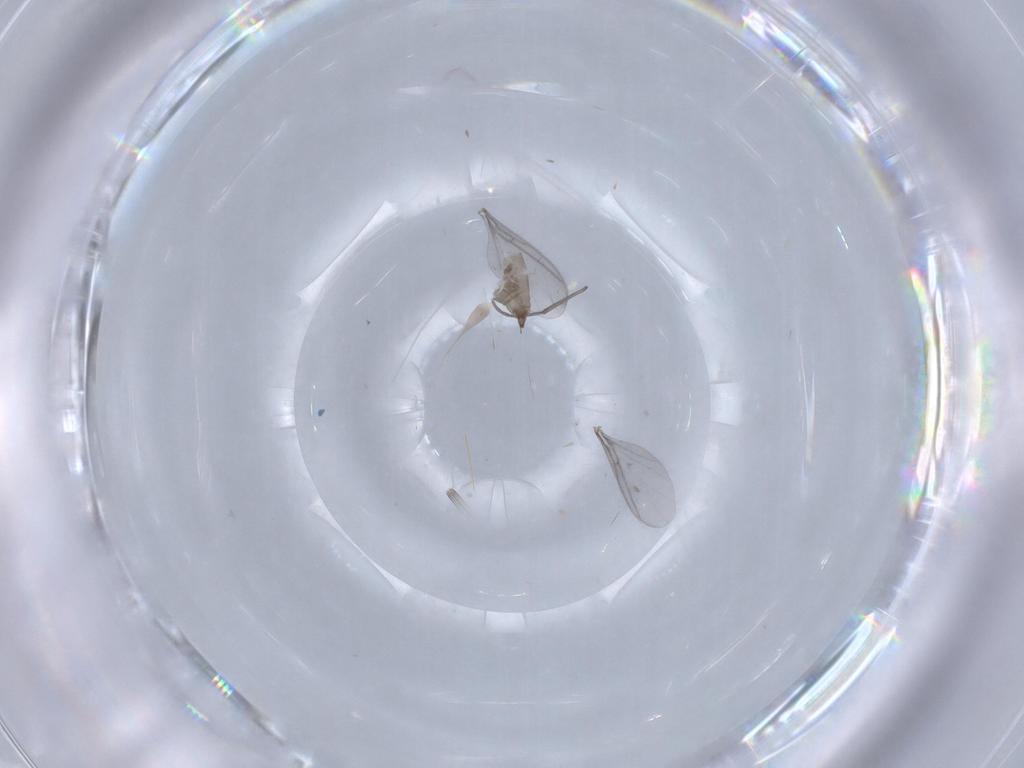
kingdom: Animalia
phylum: Arthropoda
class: Insecta
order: Diptera
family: Sciaridae
